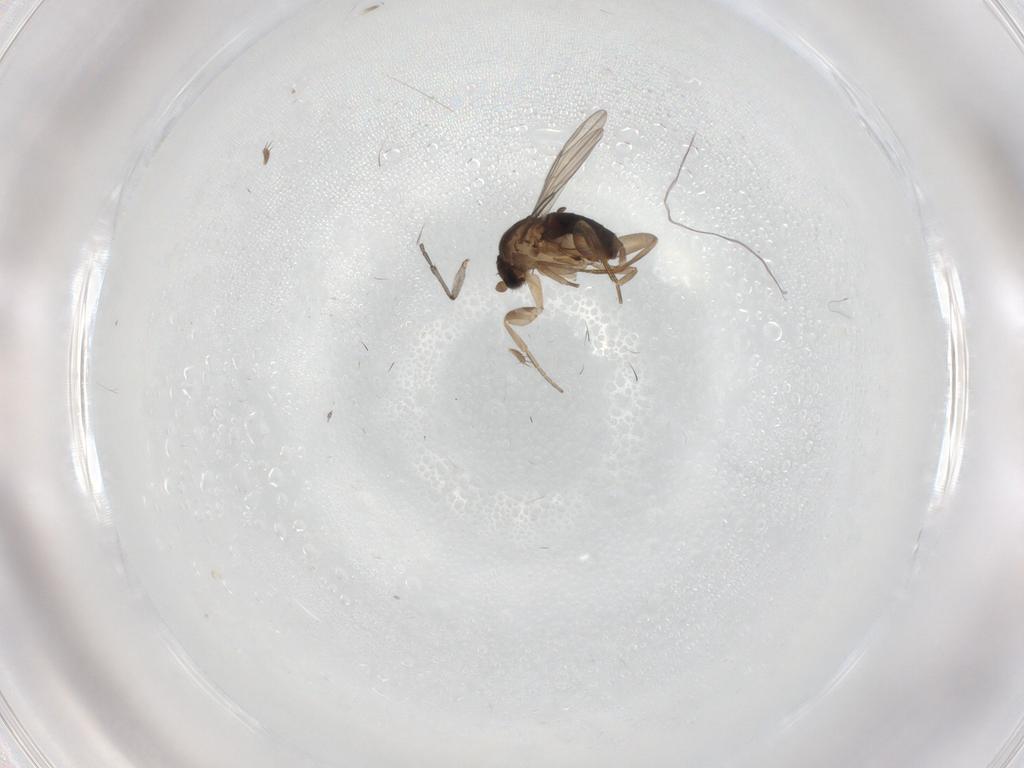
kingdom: Animalia
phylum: Arthropoda
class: Insecta
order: Diptera
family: Phoridae
